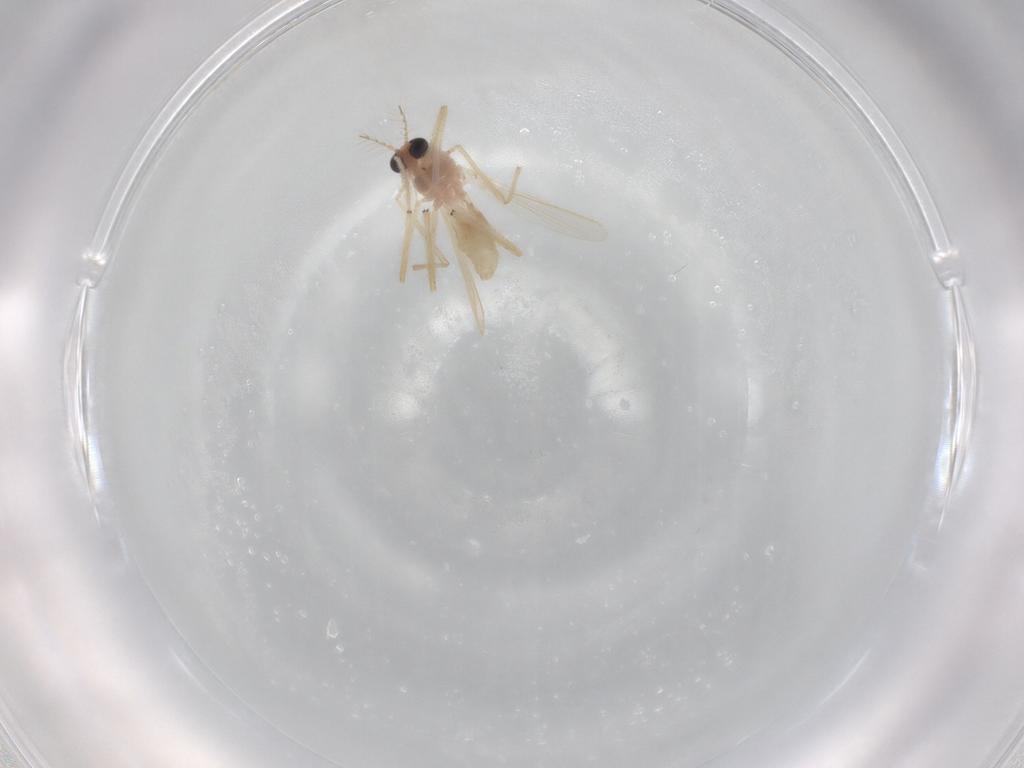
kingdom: Animalia
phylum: Arthropoda
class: Insecta
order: Diptera
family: Chironomidae
